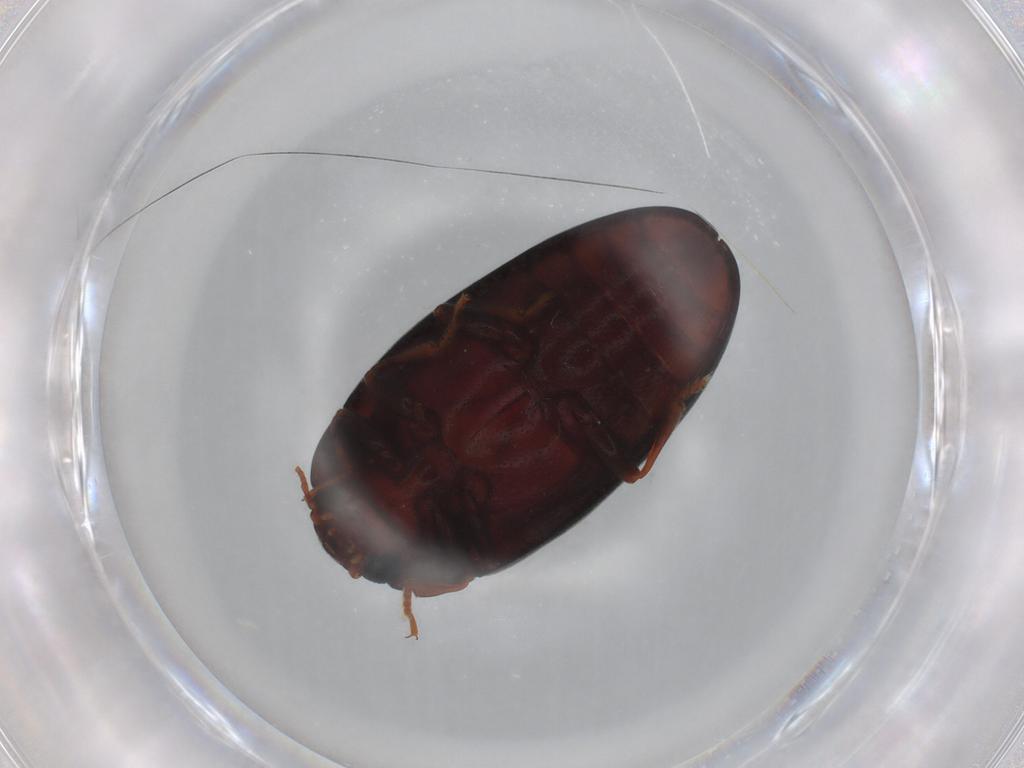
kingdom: Animalia
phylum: Arthropoda
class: Insecta
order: Coleoptera
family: Erotylidae
